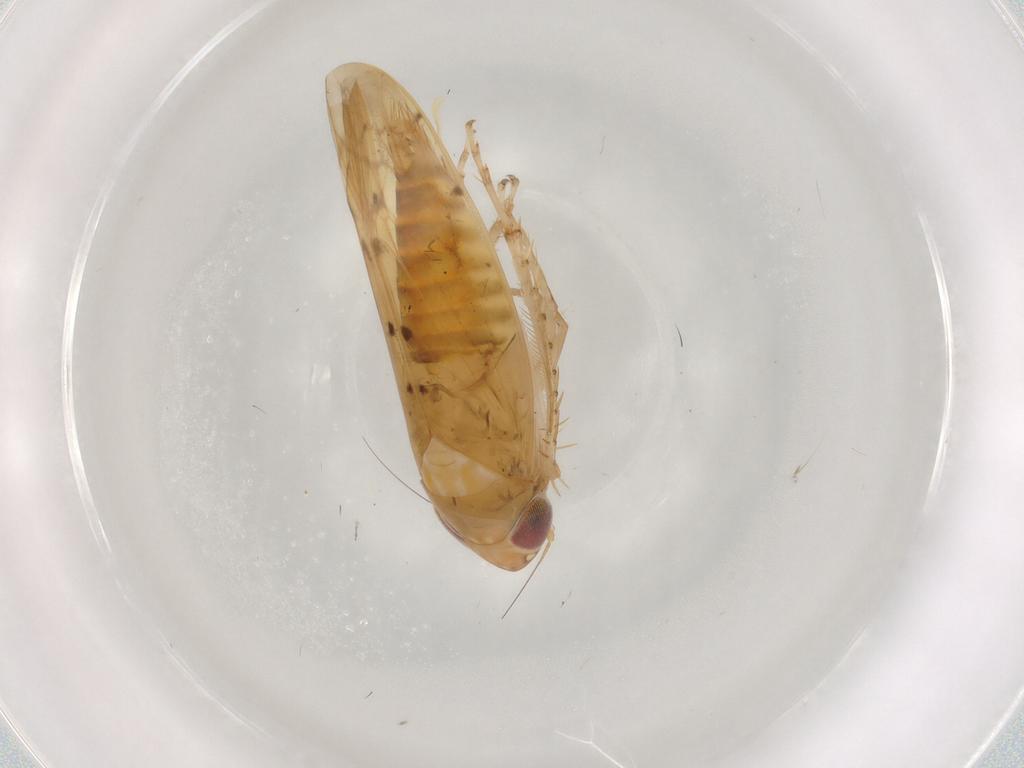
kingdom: Animalia
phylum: Arthropoda
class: Insecta
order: Hemiptera
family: Cicadellidae
